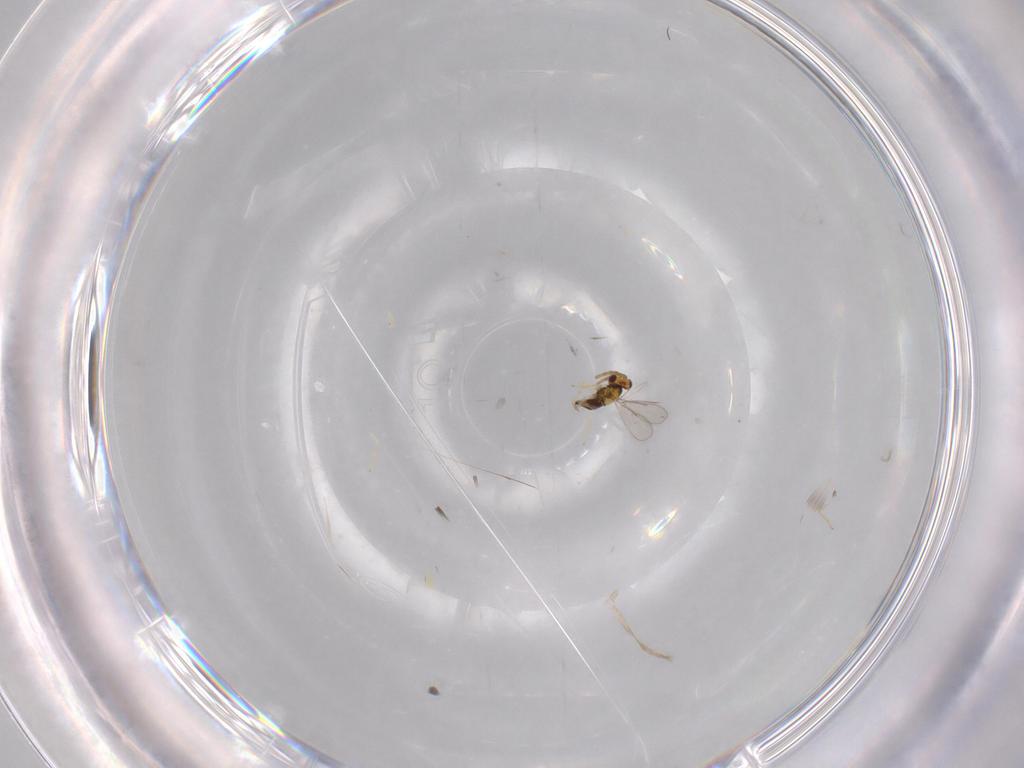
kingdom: Animalia
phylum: Arthropoda
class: Insecta
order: Hymenoptera
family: Aphelinidae
